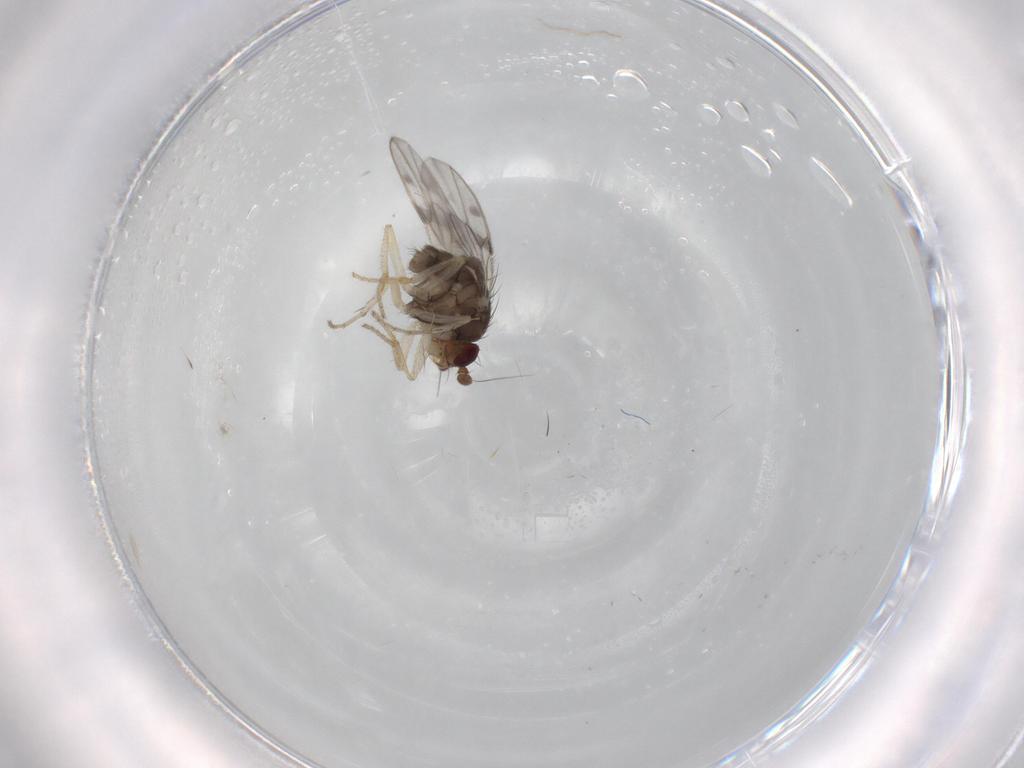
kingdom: Animalia
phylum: Arthropoda
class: Insecta
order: Diptera
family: Sphaeroceridae
